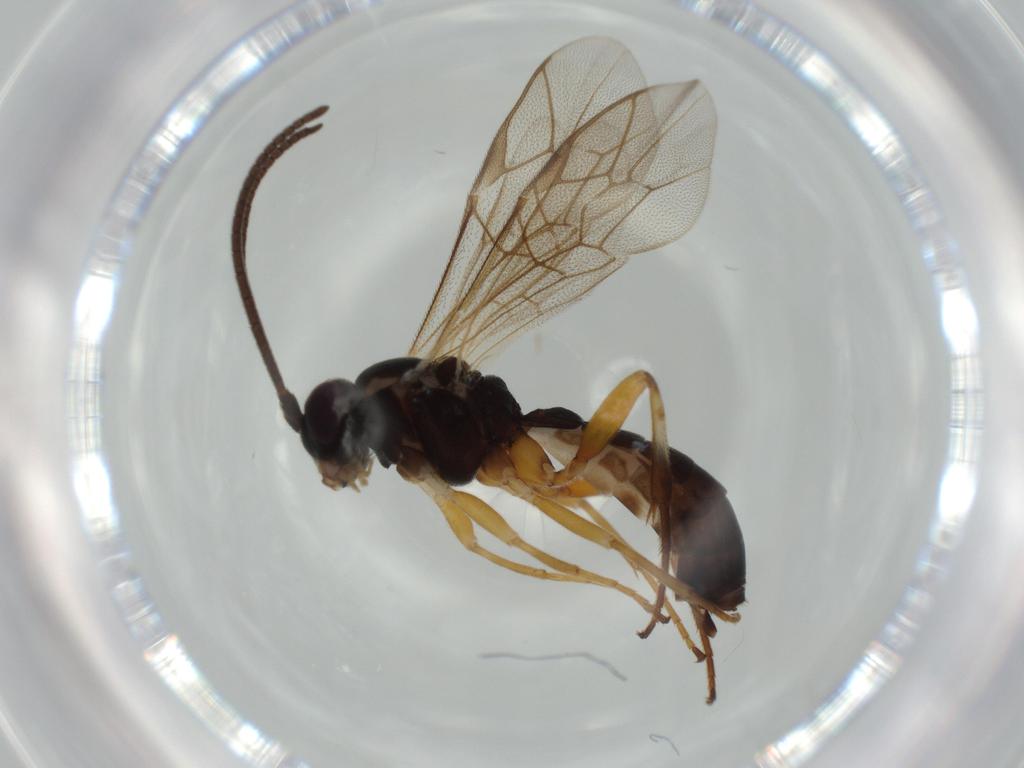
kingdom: Animalia
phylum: Arthropoda
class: Insecta
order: Hymenoptera
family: Ichneumonidae
